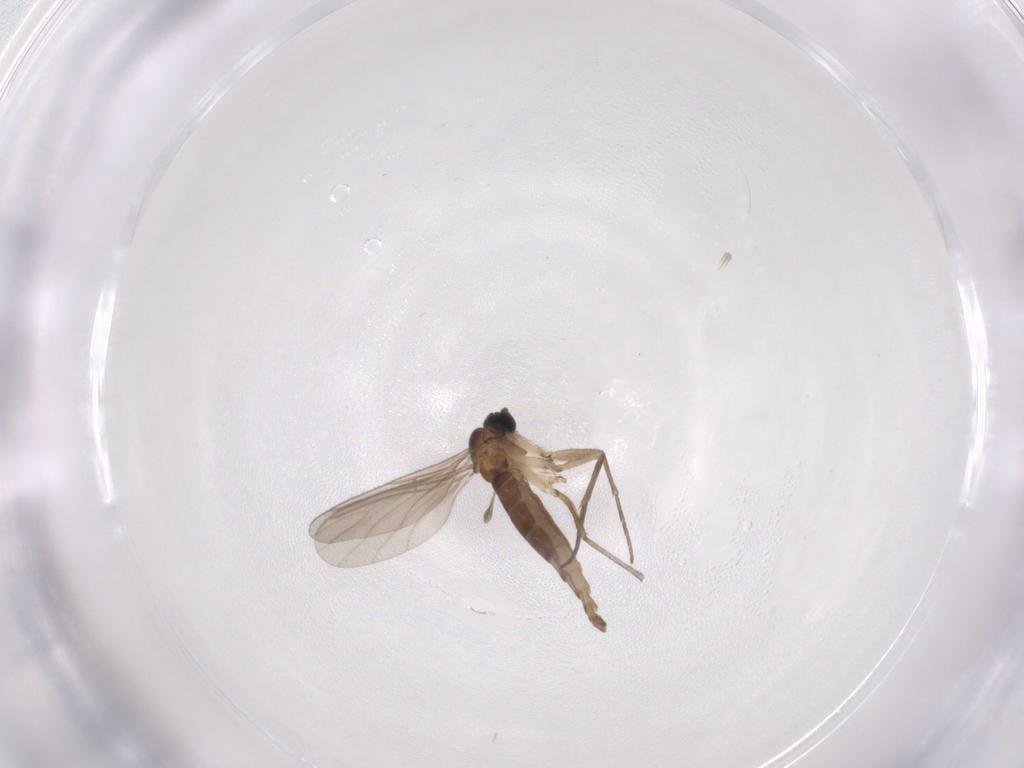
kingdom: Animalia
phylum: Arthropoda
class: Insecta
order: Diptera
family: Sciaridae
